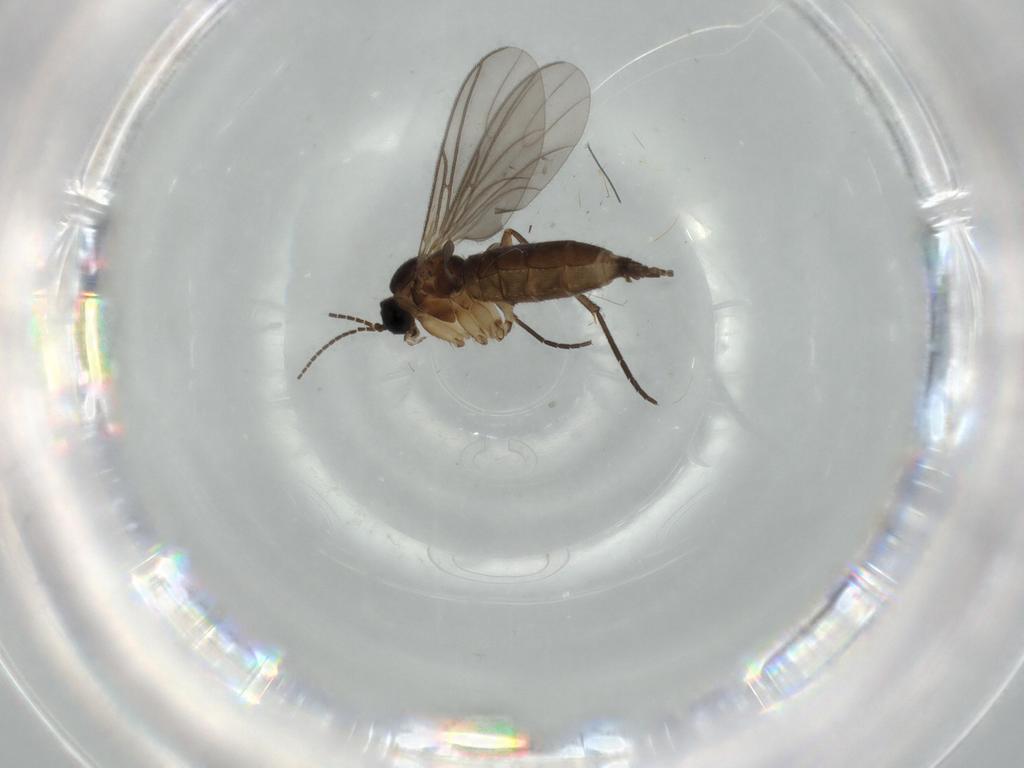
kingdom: Animalia
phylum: Arthropoda
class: Insecta
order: Diptera
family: Sciaridae
